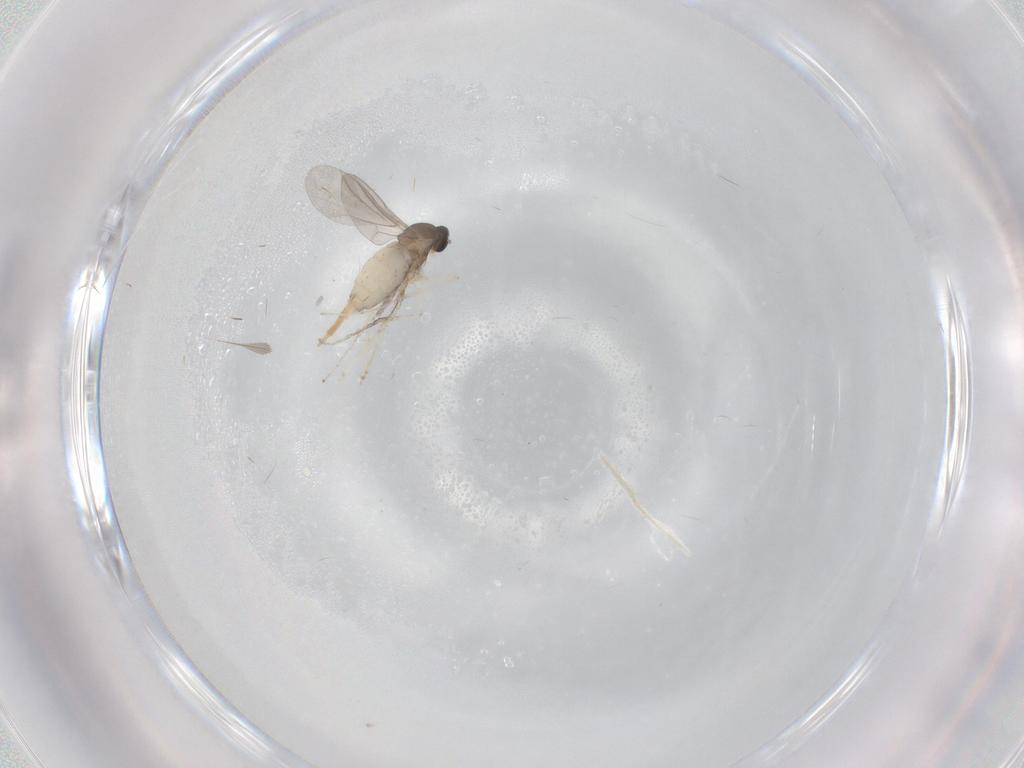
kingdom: Animalia
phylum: Arthropoda
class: Insecta
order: Diptera
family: Cecidomyiidae
